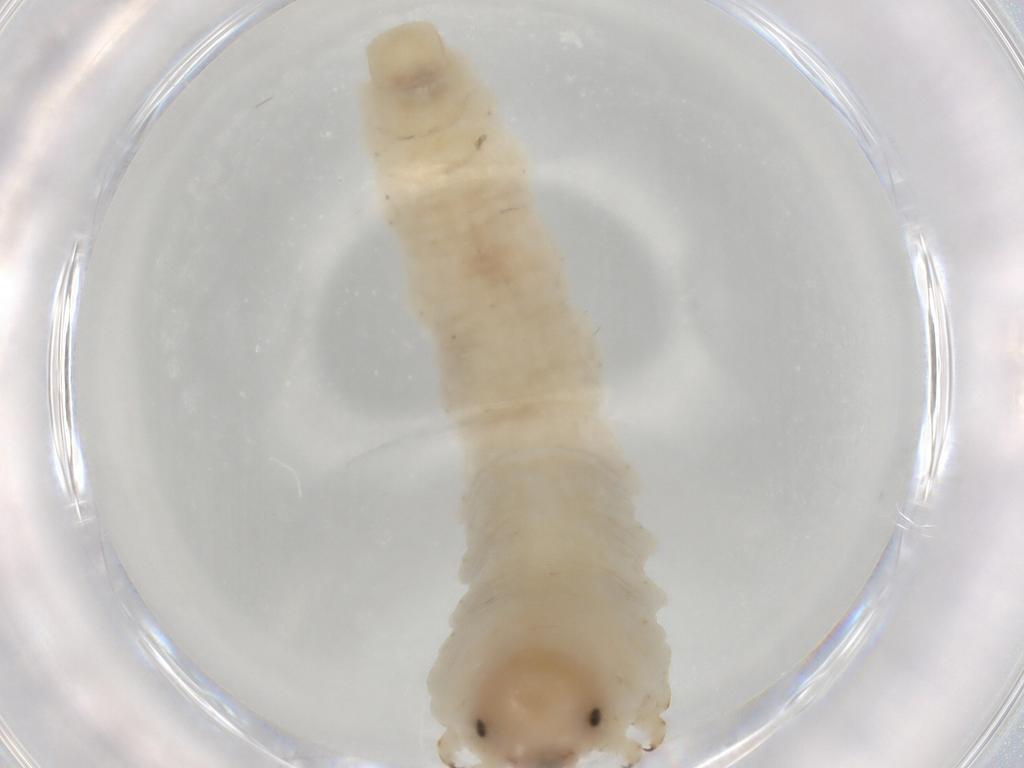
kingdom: Animalia
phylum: Arthropoda
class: Insecta
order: Hymenoptera
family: Tenthredinidae
